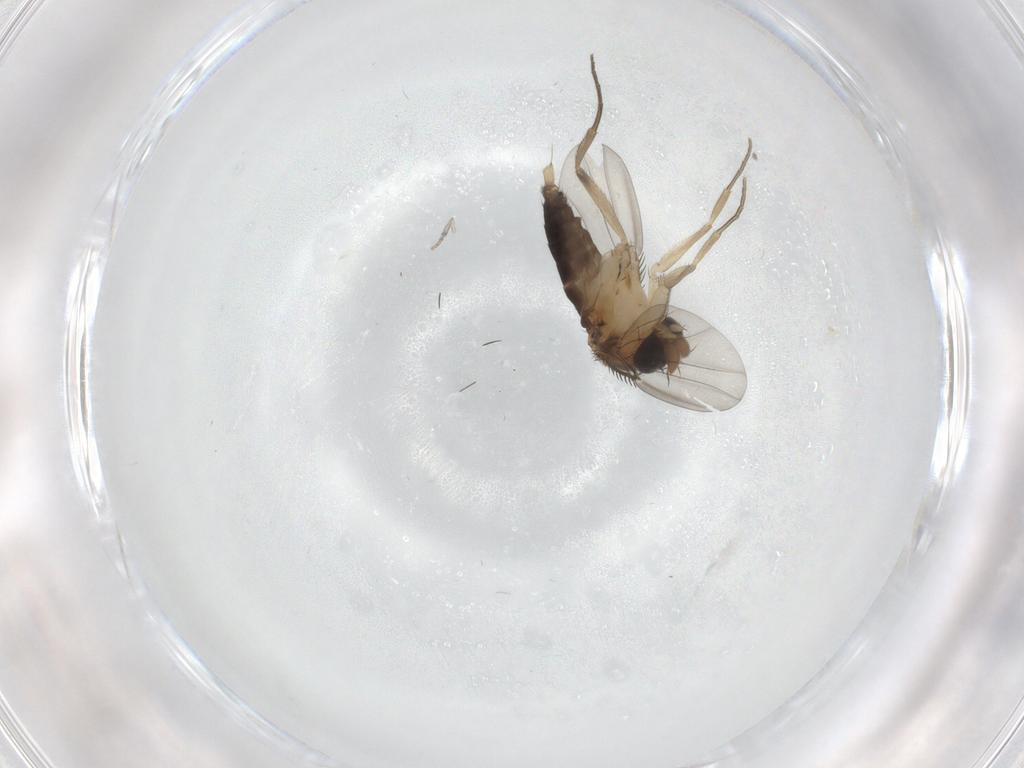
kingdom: Animalia
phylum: Arthropoda
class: Insecta
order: Diptera
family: Phoridae
